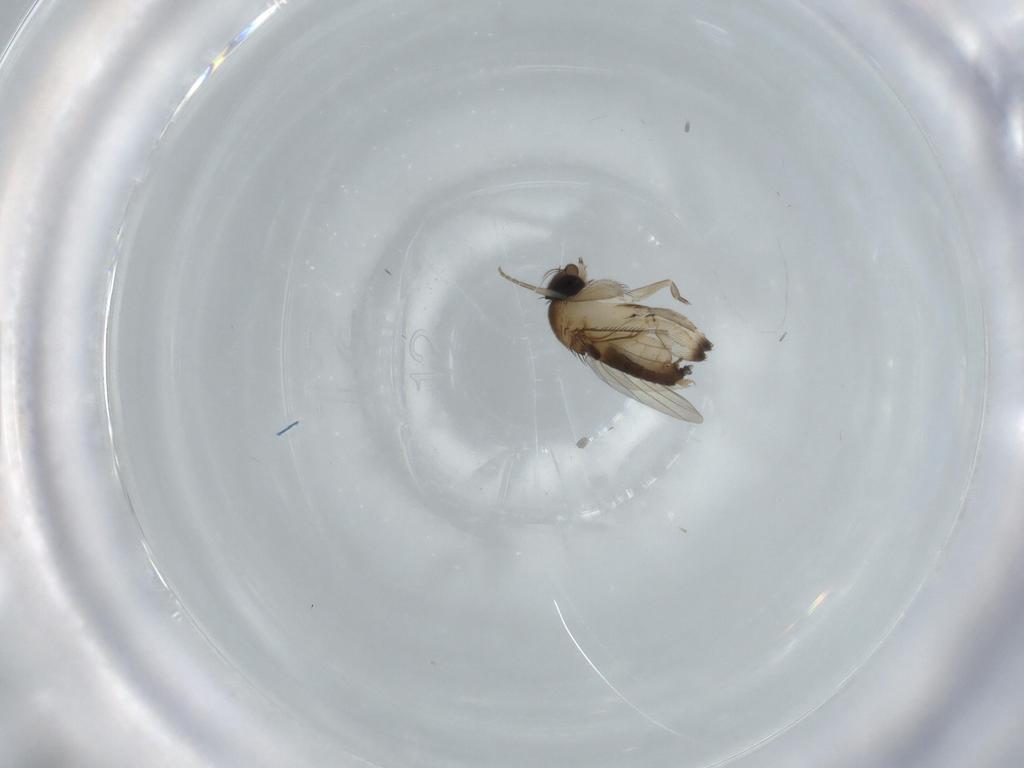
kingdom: Animalia
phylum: Arthropoda
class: Insecta
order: Diptera
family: Phoridae
